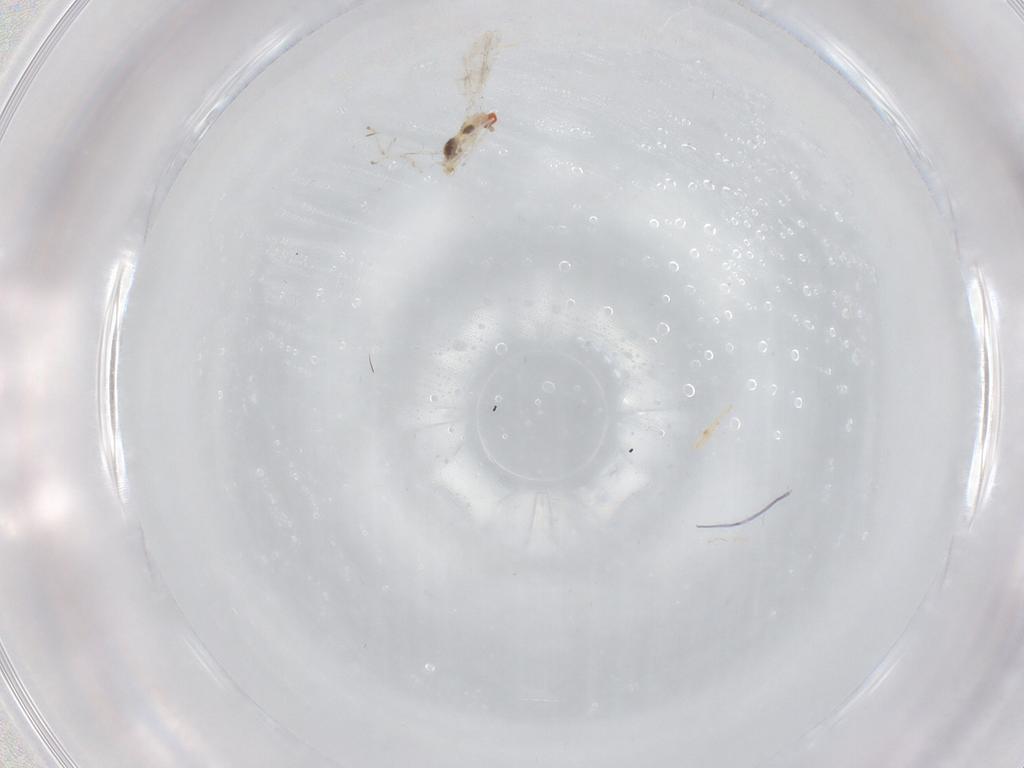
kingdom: Animalia
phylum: Arthropoda
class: Insecta
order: Diptera
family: Cecidomyiidae
